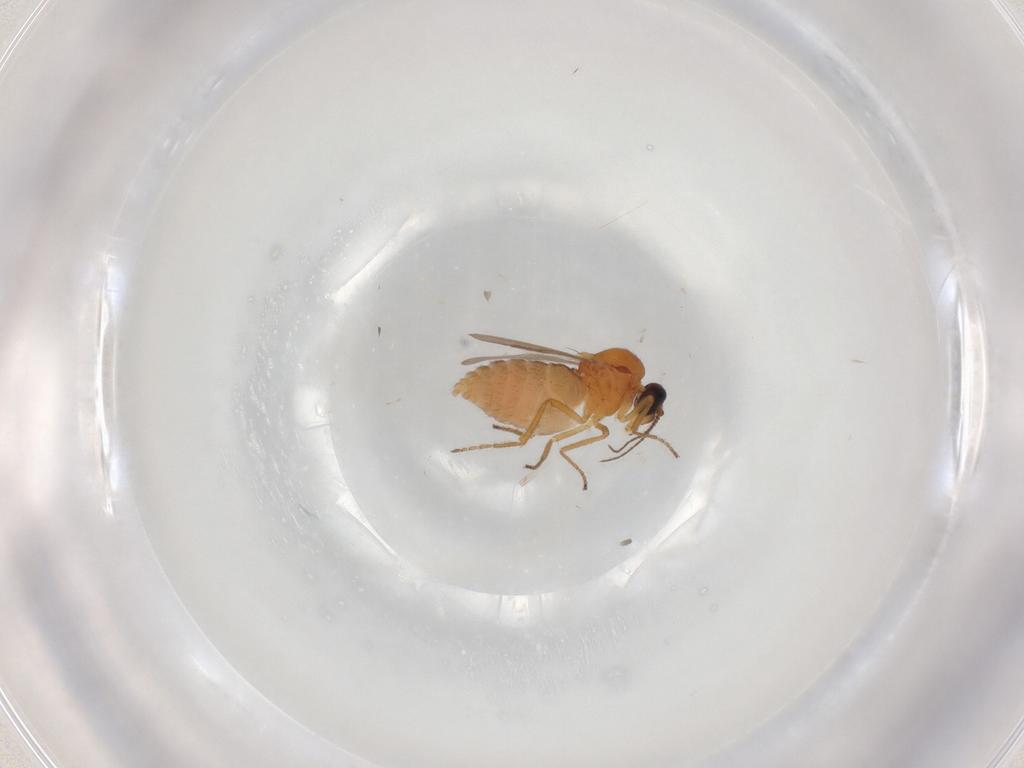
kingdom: Animalia
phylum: Arthropoda
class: Insecta
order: Diptera
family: Ceratopogonidae
